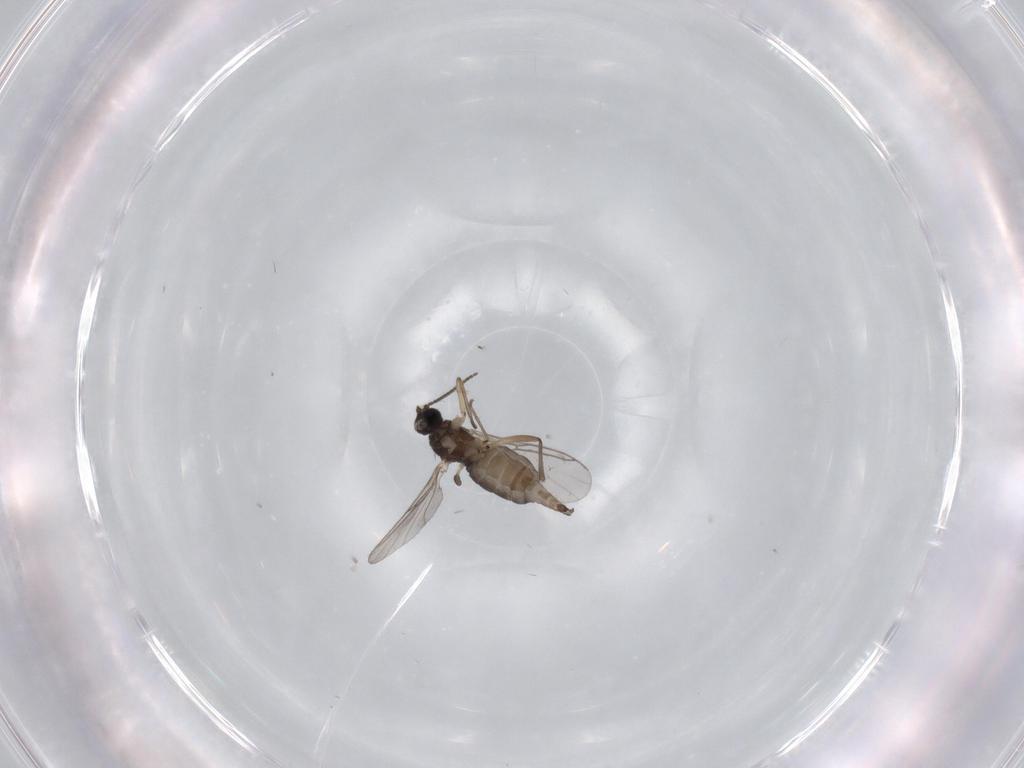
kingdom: Animalia
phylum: Arthropoda
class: Insecta
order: Diptera
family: Sciaridae
